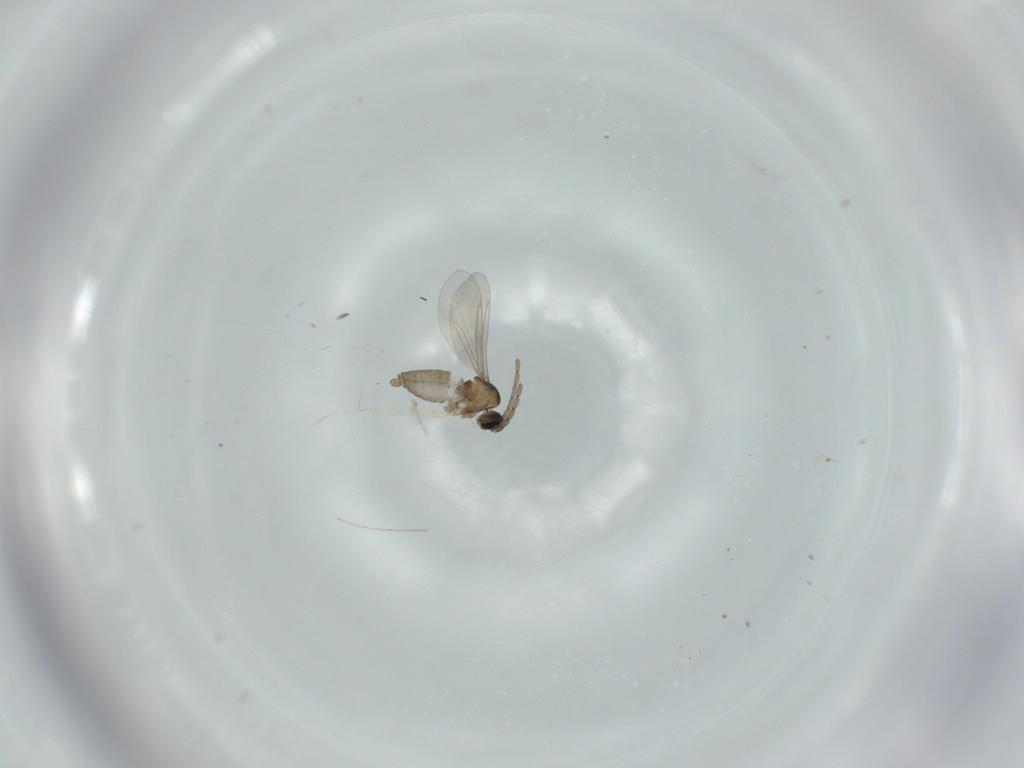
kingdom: Animalia
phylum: Arthropoda
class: Insecta
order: Diptera
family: Cecidomyiidae
